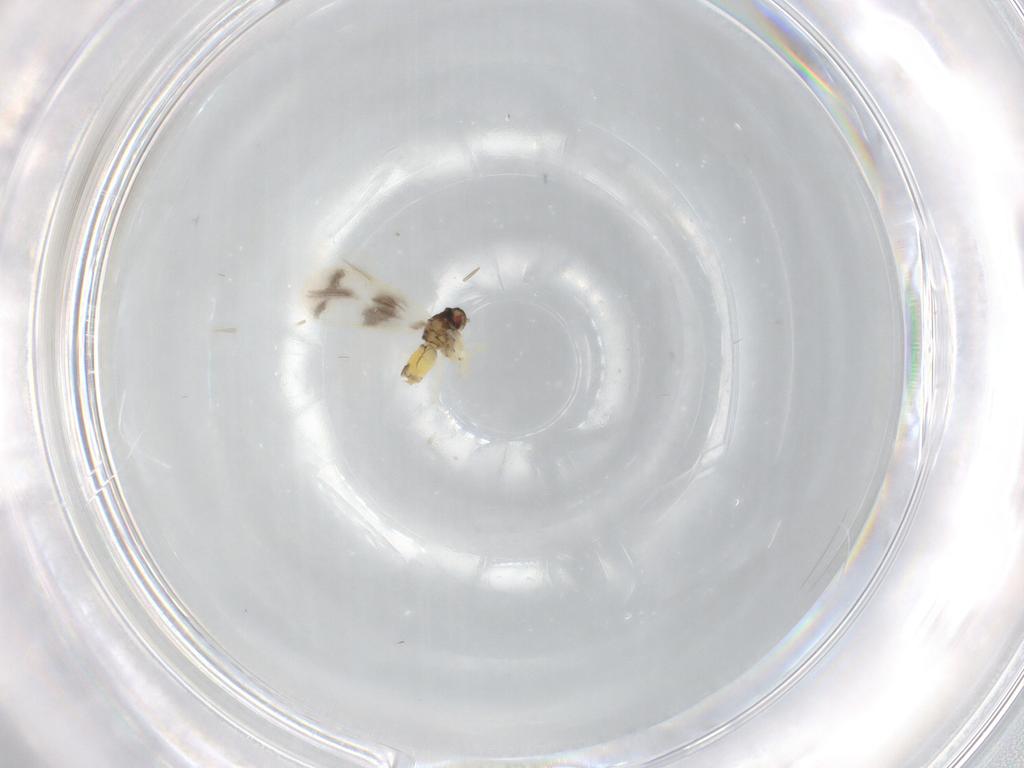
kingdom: Animalia
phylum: Arthropoda
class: Insecta
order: Hemiptera
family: Aleyrodidae
